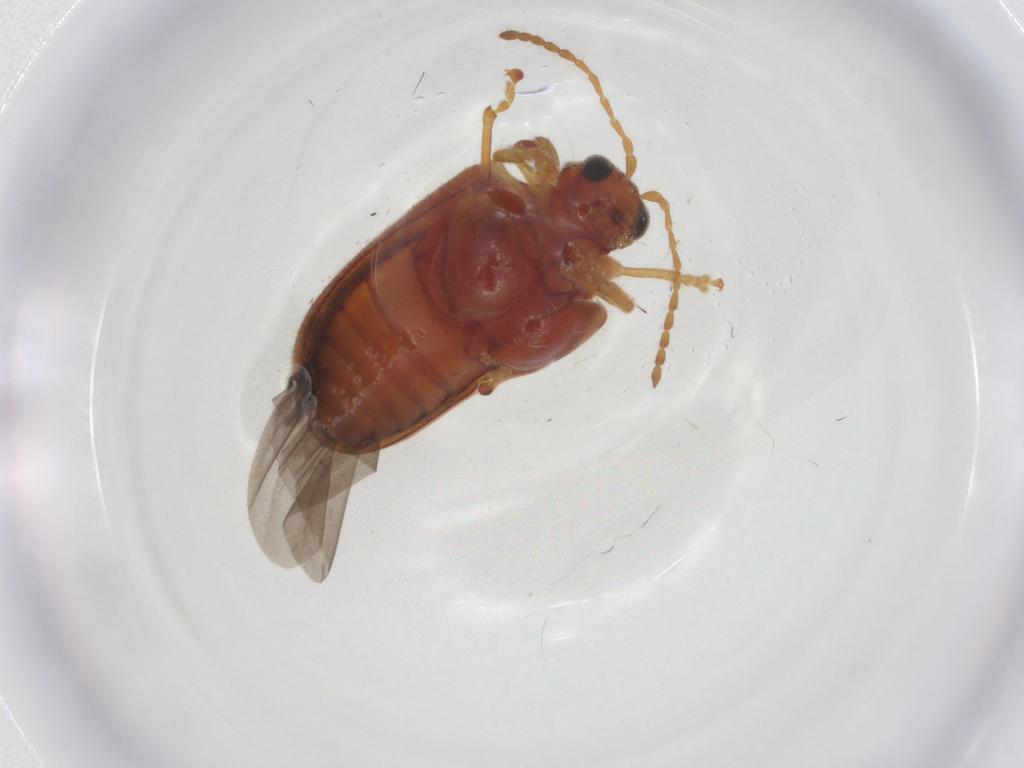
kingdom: Animalia
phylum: Arthropoda
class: Insecta
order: Coleoptera
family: Chrysomelidae
